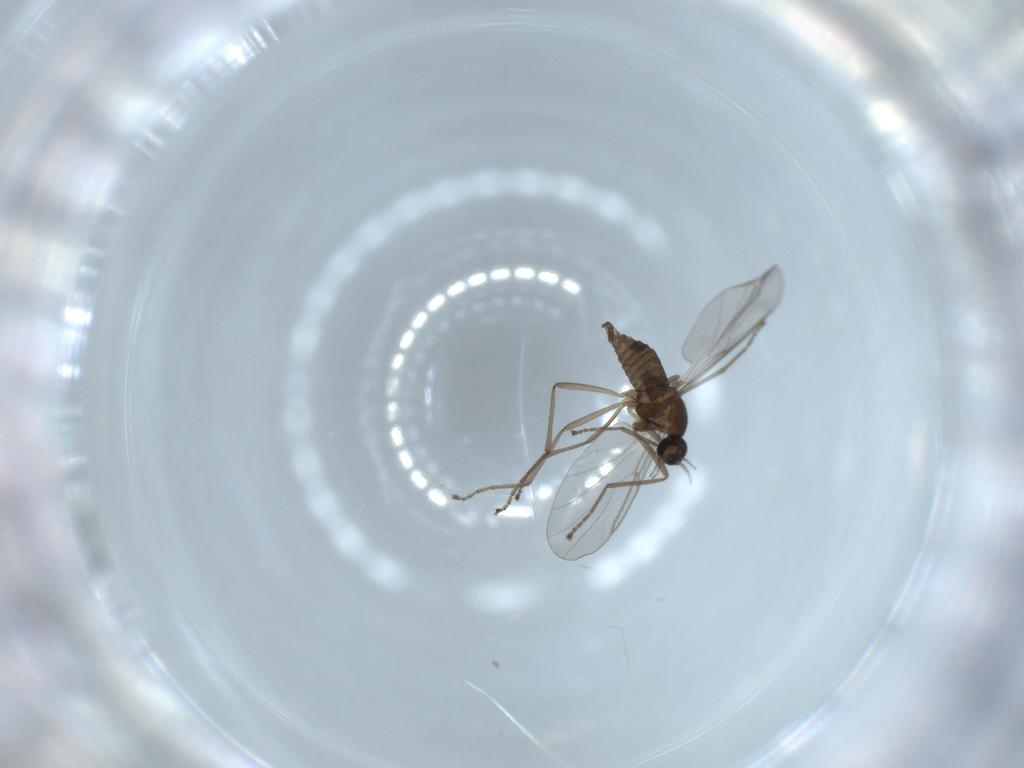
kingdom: Animalia
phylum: Arthropoda
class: Insecta
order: Diptera
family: Cecidomyiidae
